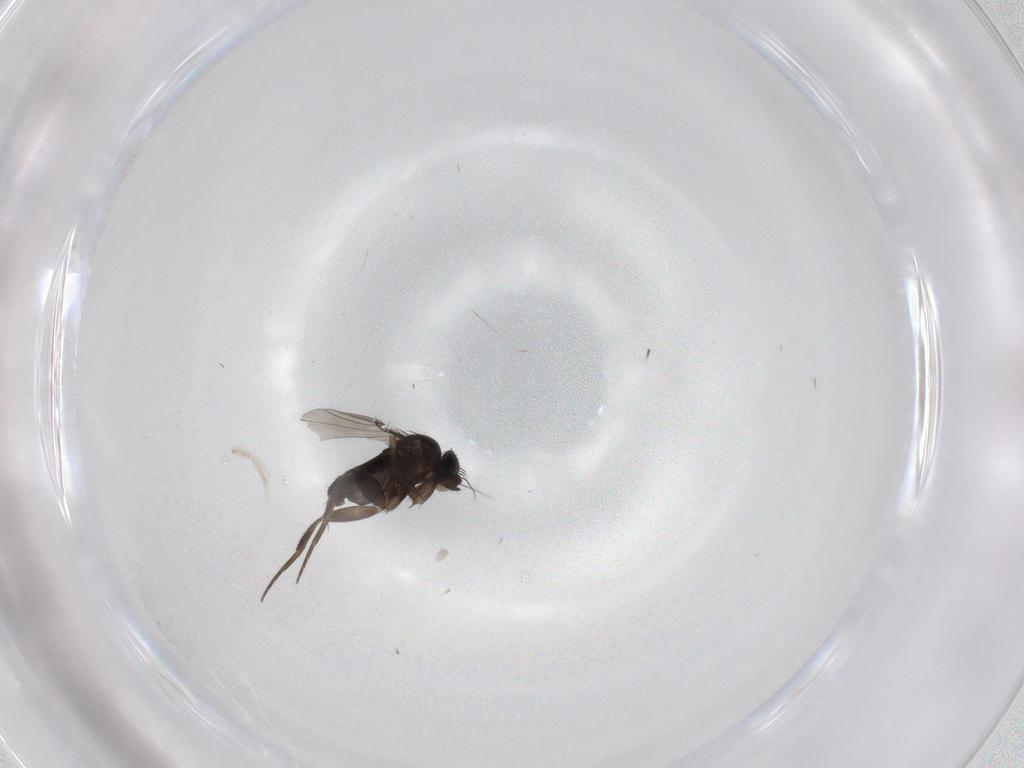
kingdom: Animalia
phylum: Arthropoda
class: Insecta
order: Diptera
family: Phoridae
